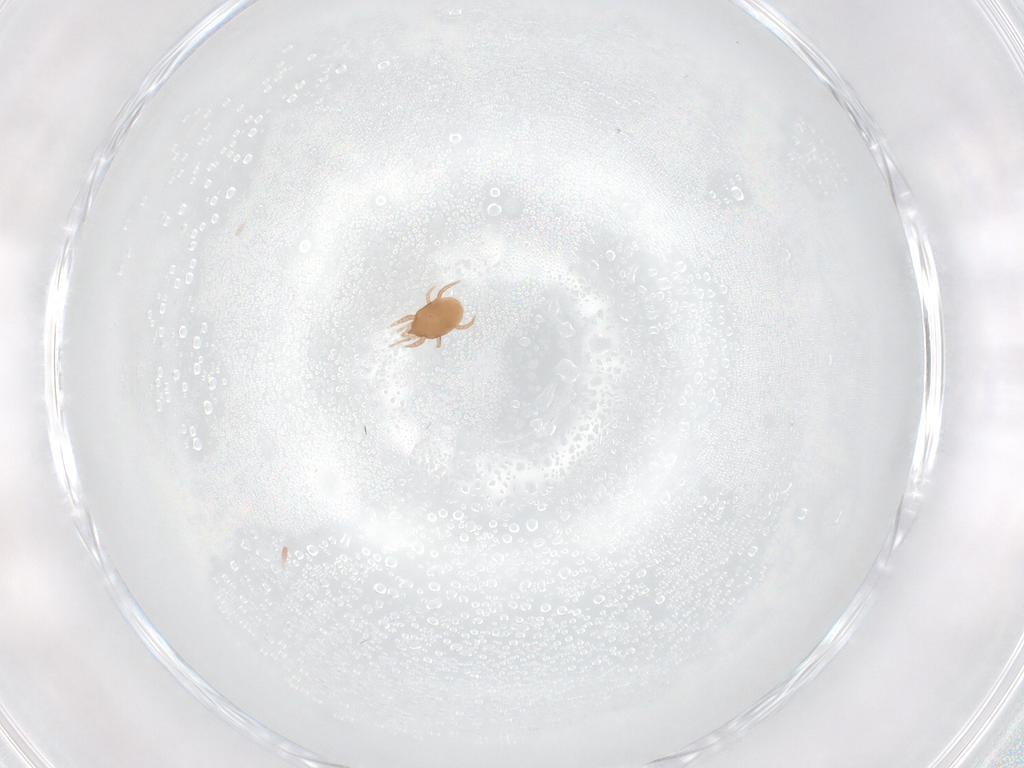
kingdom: Animalia
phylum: Arthropoda
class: Arachnida
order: Mesostigmata
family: Macrochelidae
